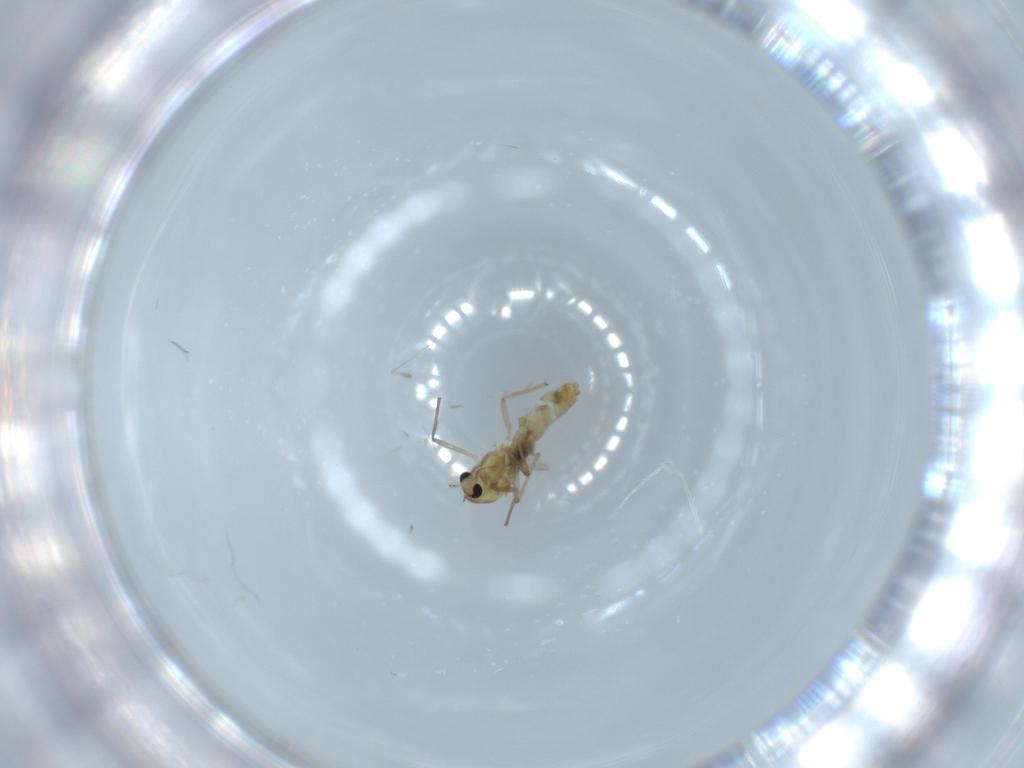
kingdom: Animalia
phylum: Arthropoda
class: Insecta
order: Diptera
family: Chironomidae
